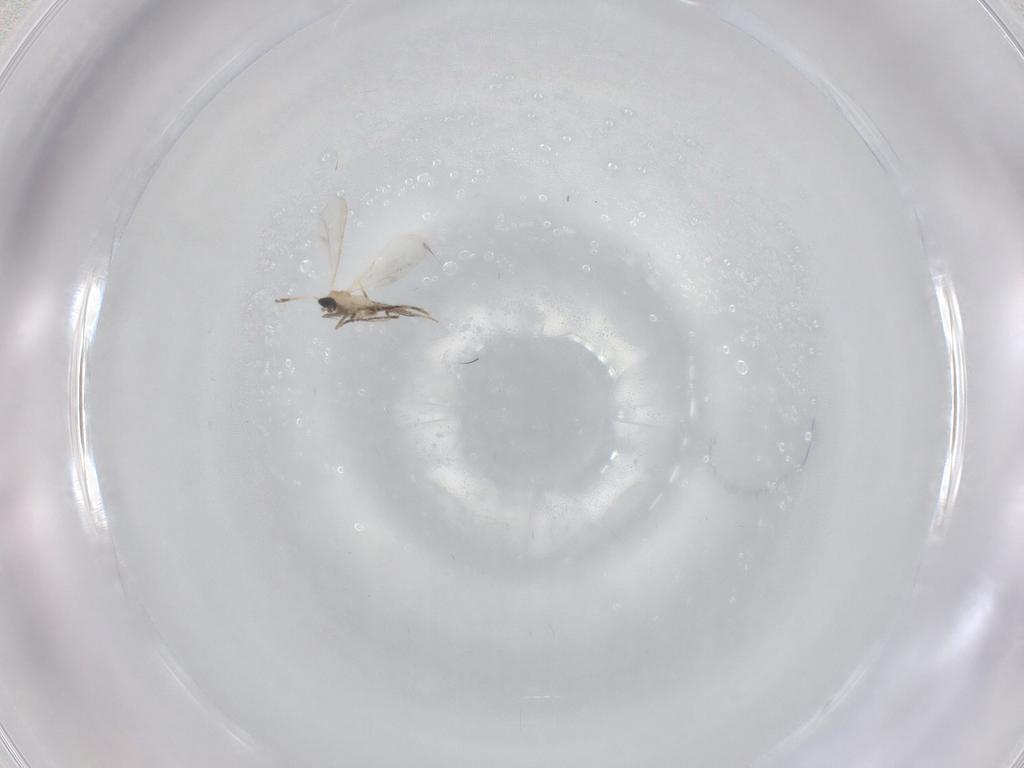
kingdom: Animalia
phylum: Arthropoda
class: Insecta
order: Diptera
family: Chironomidae
